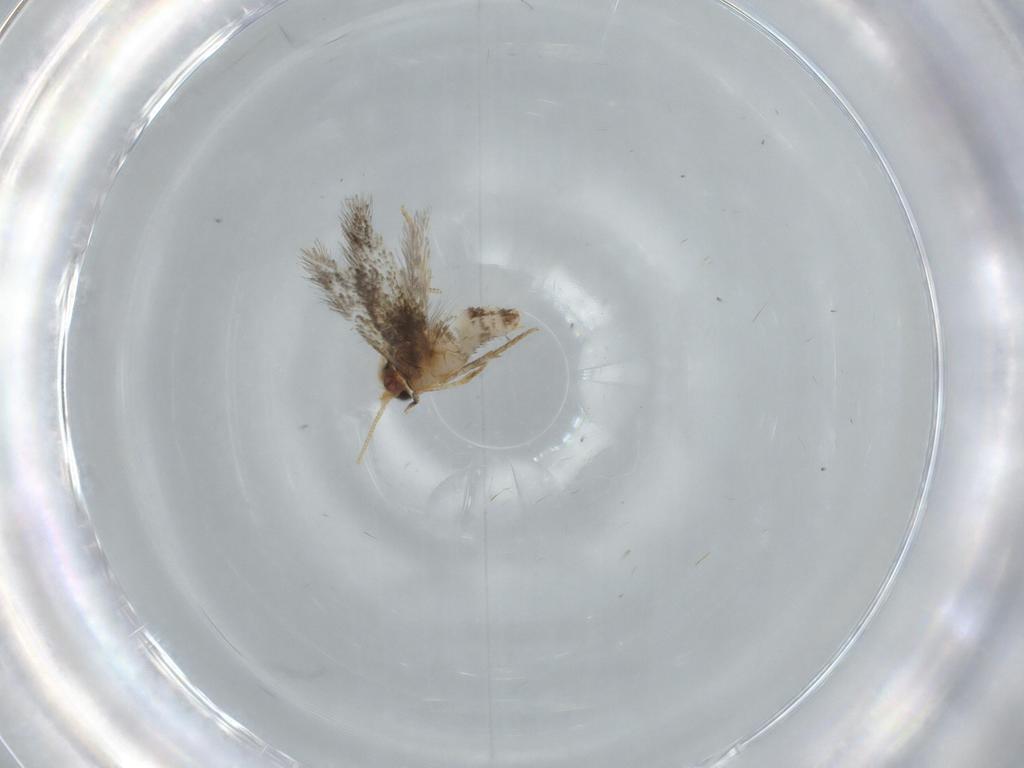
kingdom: Animalia
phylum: Arthropoda
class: Insecta
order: Lepidoptera
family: Nepticulidae
